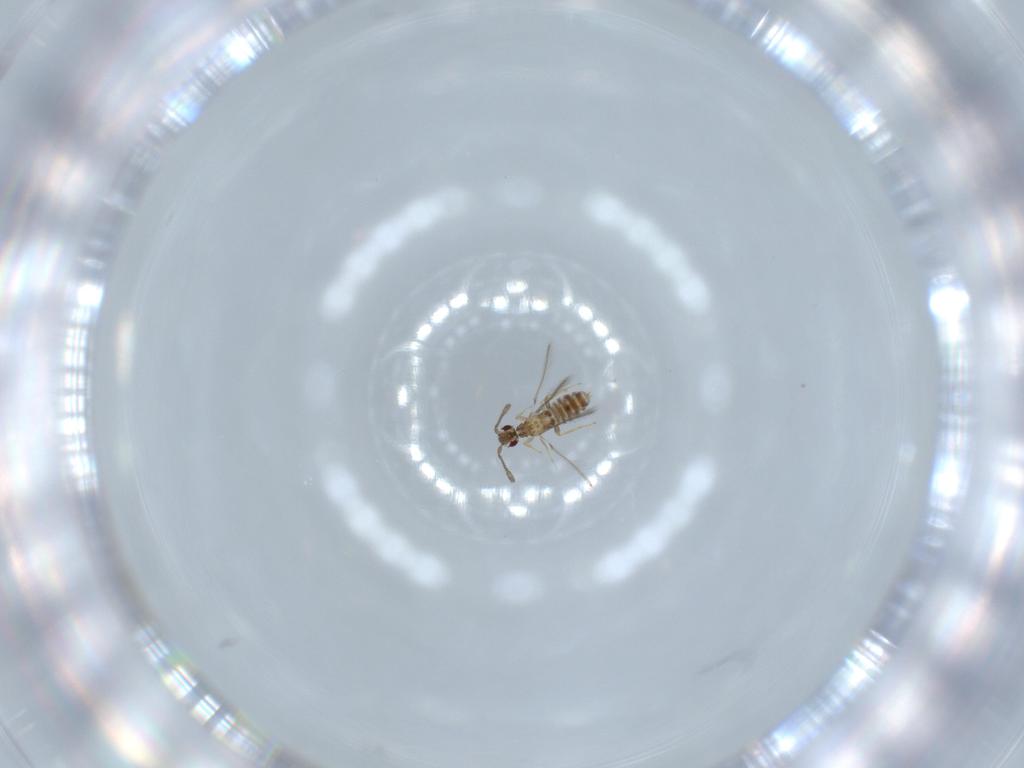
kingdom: Animalia
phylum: Arthropoda
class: Insecta
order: Hymenoptera
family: Mymaridae
